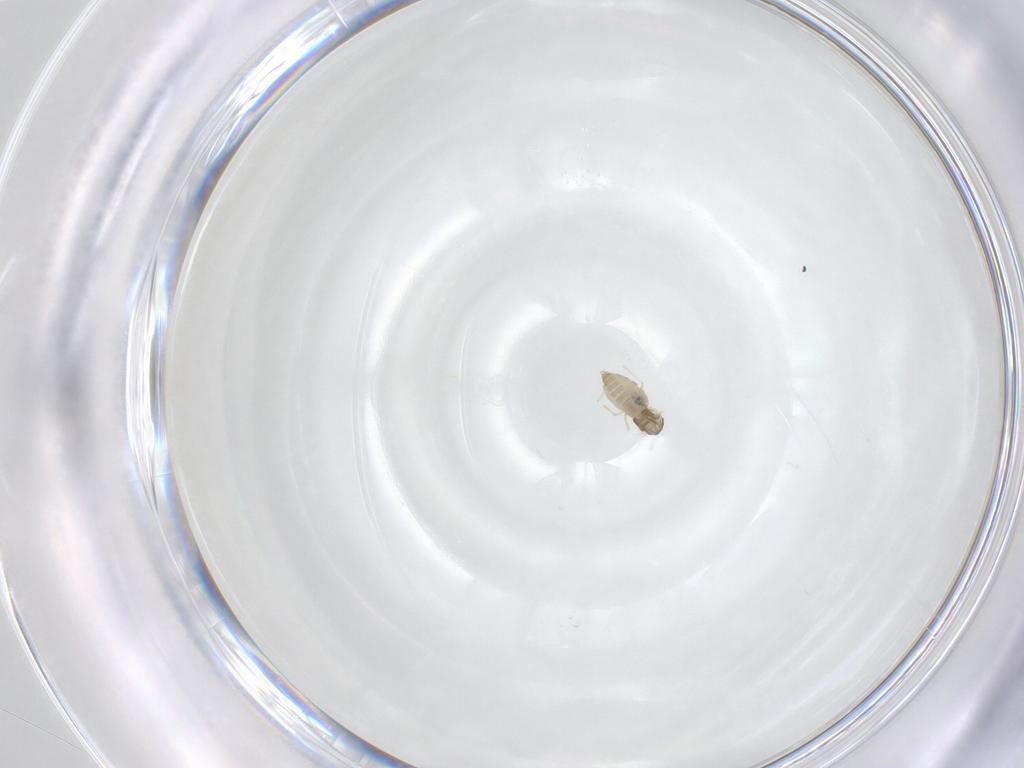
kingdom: Animalia
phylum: Arthropoda
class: Insecta
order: Diptera
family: Cecidomyiidae
